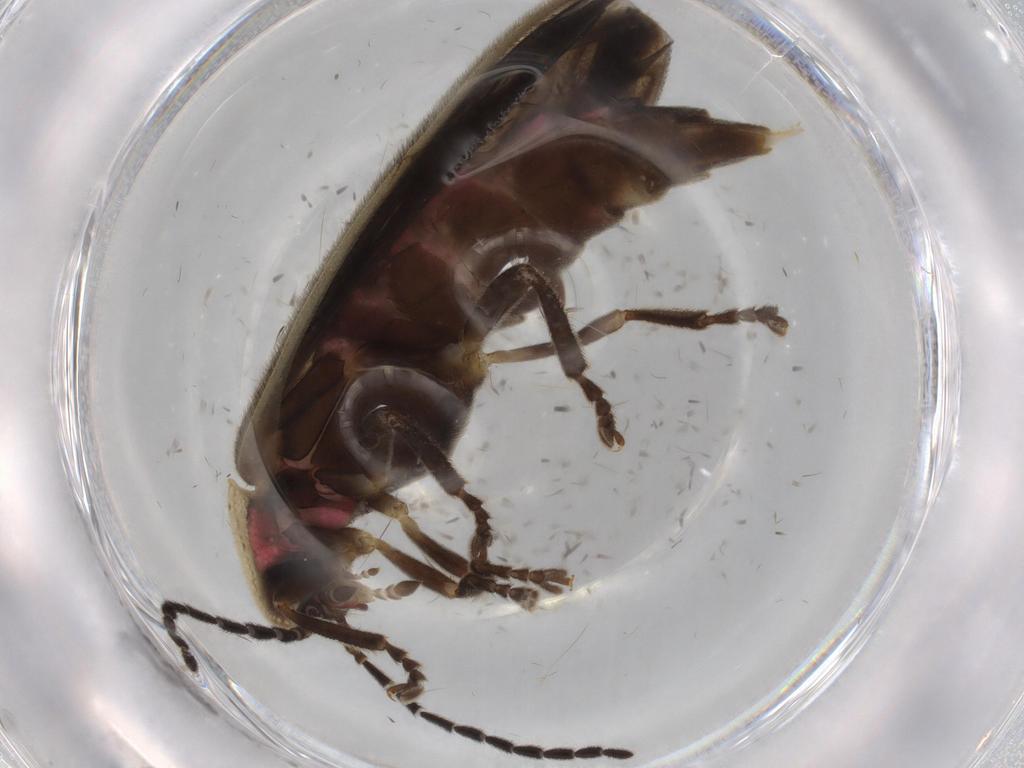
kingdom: Animalia
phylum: Arthropoda
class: Insecta
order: Coleoptera
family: Lampyridae
